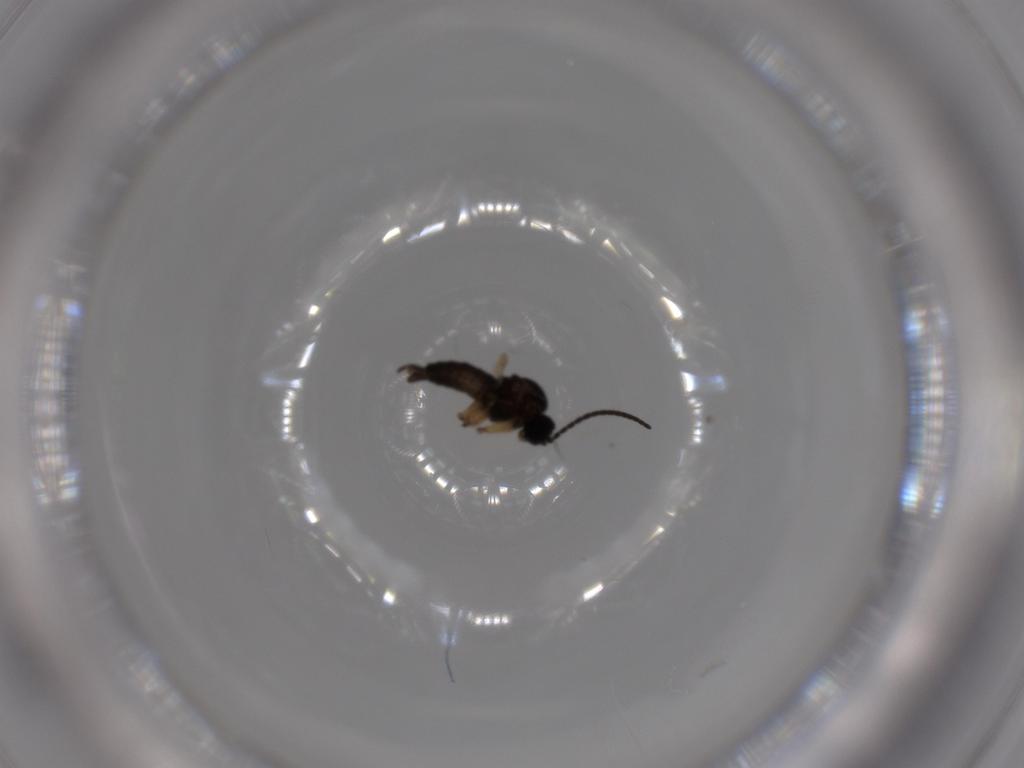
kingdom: Animalia
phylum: Arthropoda
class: Insecta
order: Diptera
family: Sciaridae
